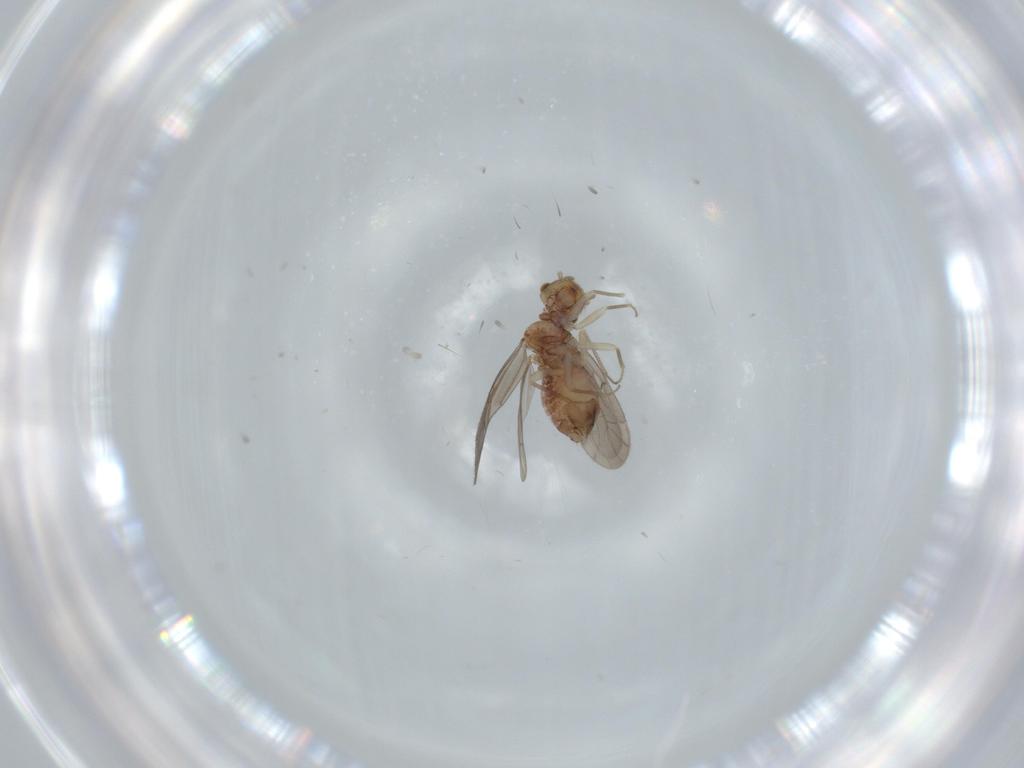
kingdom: Animalia
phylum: Arthropoda
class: Insecta
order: Psocodea
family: Ectopsocidae
